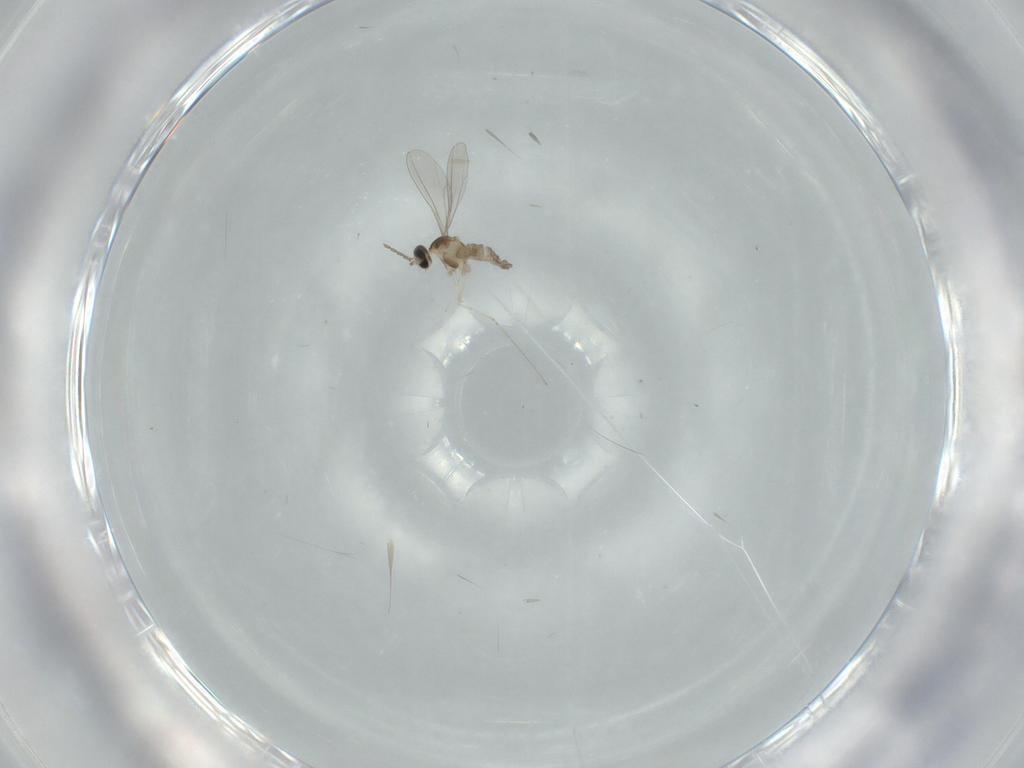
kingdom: Animalia
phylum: Arthropoda
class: Insecta
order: Diptera
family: Cecidomyiidae
